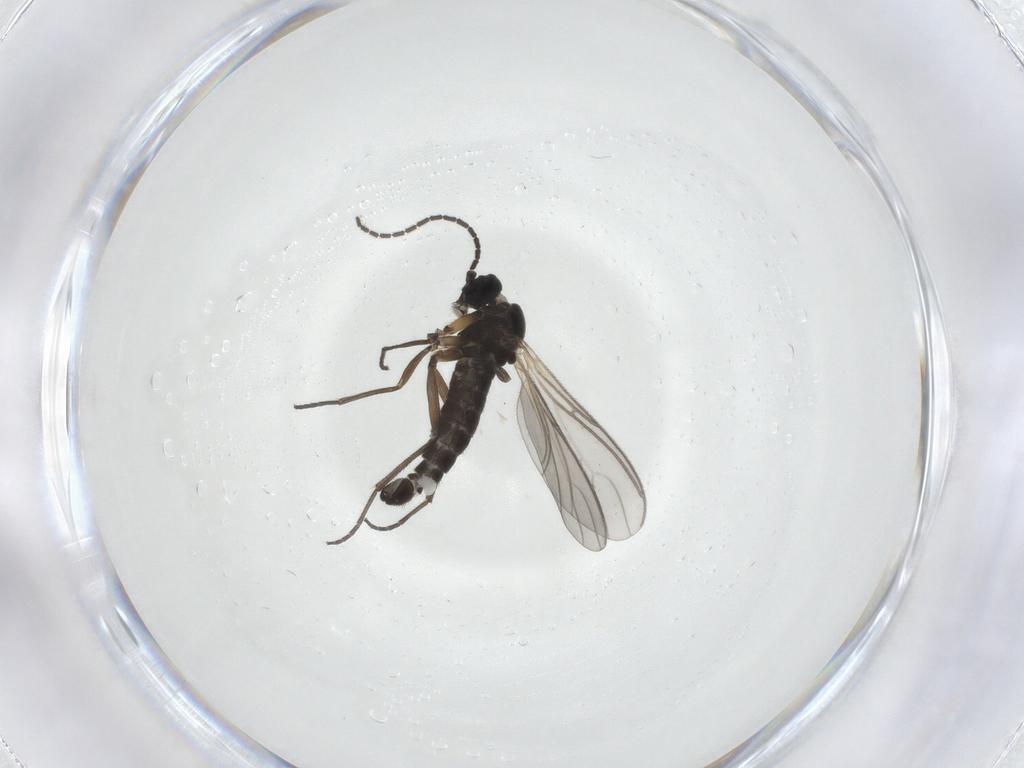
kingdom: Animalia
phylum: Arthropoda
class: Insecta
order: Diptera
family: Sciaridae
